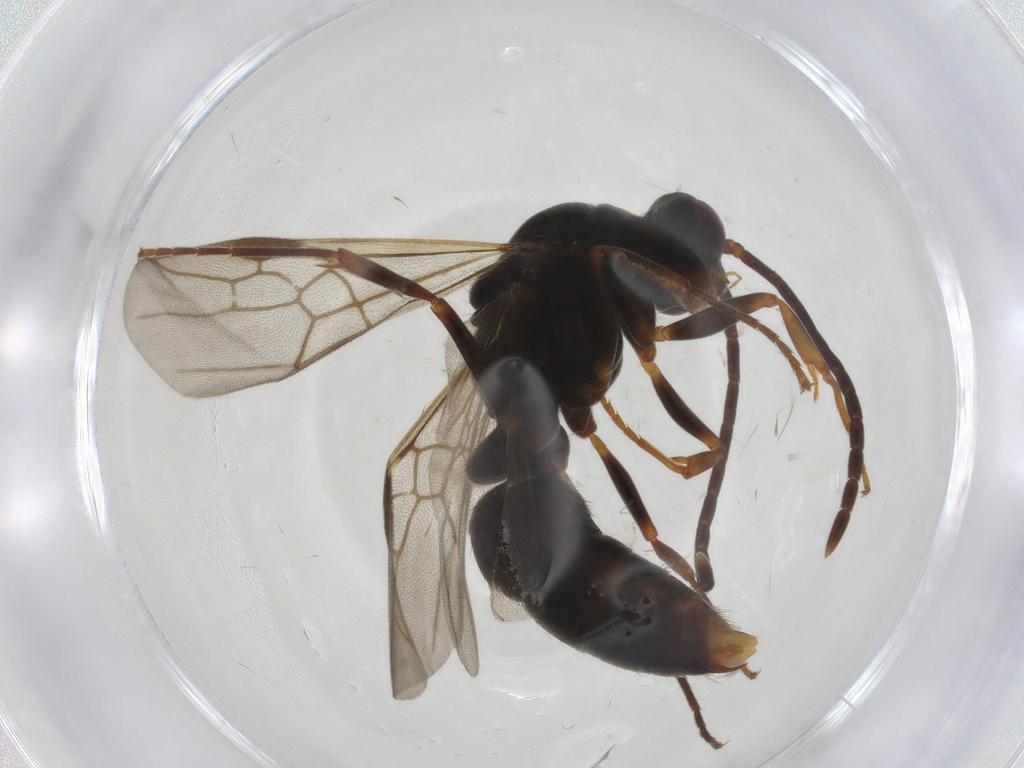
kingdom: Animalia
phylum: Arthropoda
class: Insecta
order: Hymenoptera
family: Formicidae
